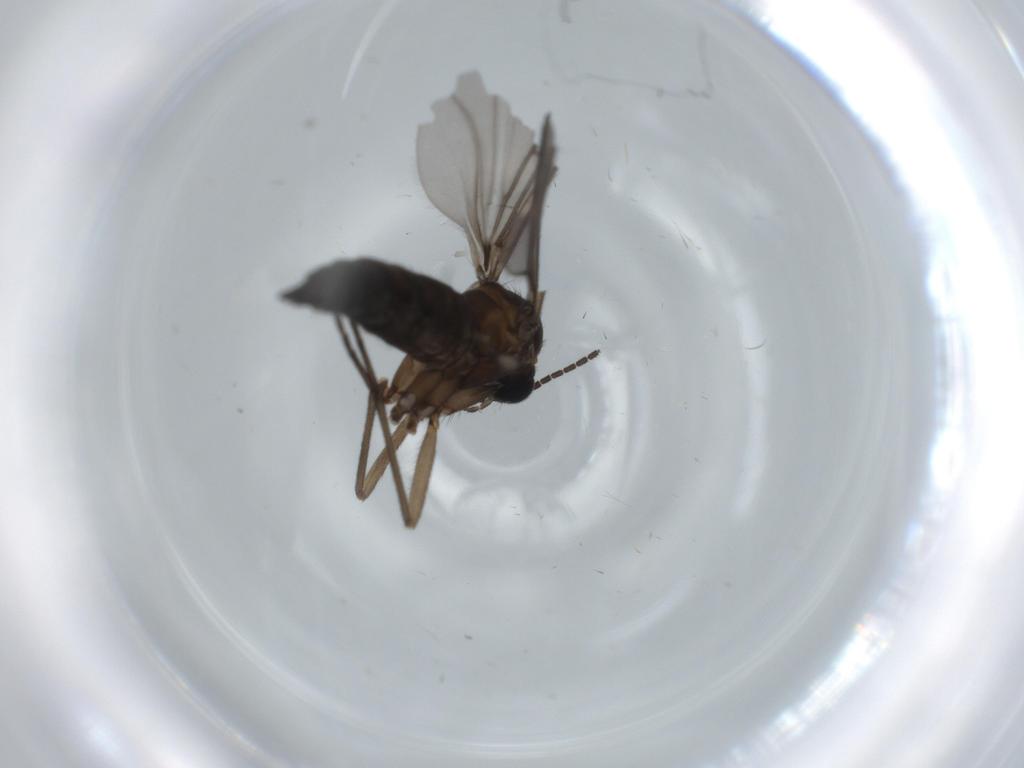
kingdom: Animalia
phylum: Arthropoda
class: Insecta
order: Diptera
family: Sciaridae
